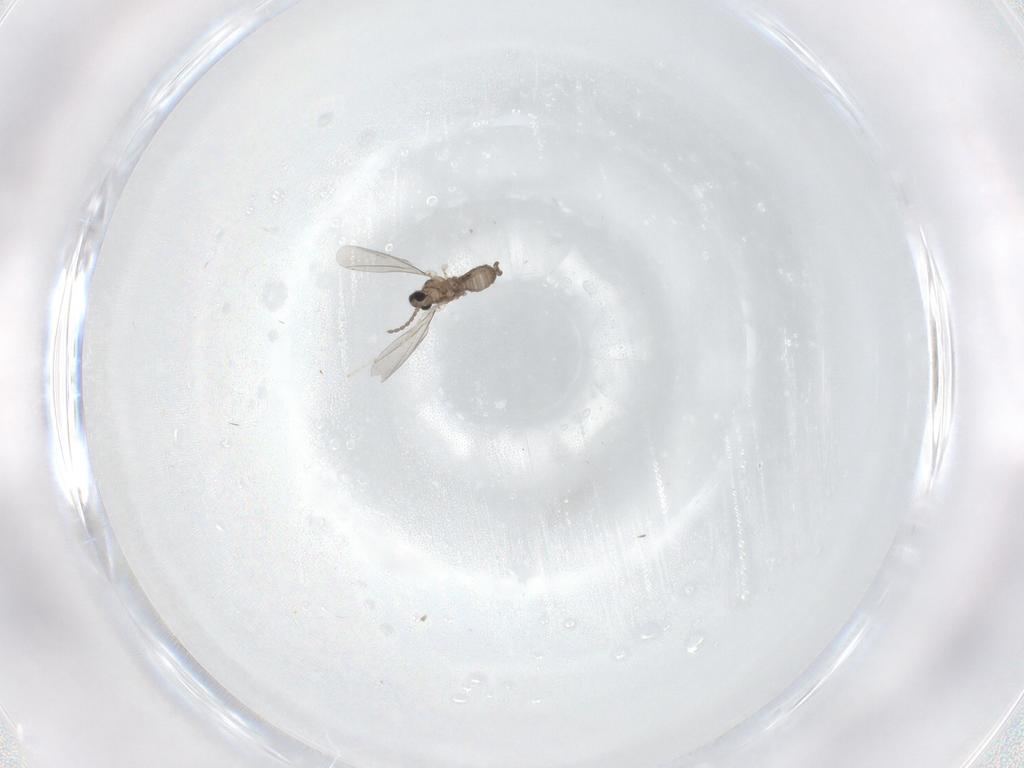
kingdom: Animalia
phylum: Arthropoda
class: Insecta
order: Diptera
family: Cecidomyiidae
